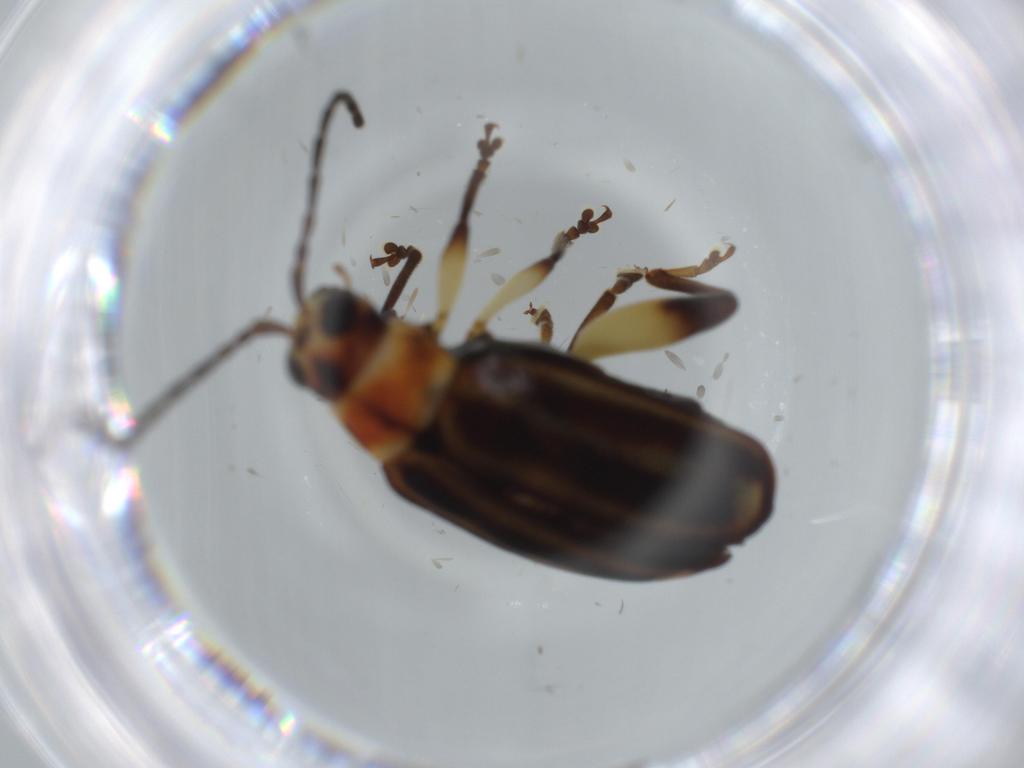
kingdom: Animalia
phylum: Arthropoda
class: Insecta
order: Coleoptera
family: Chrysomelidae
